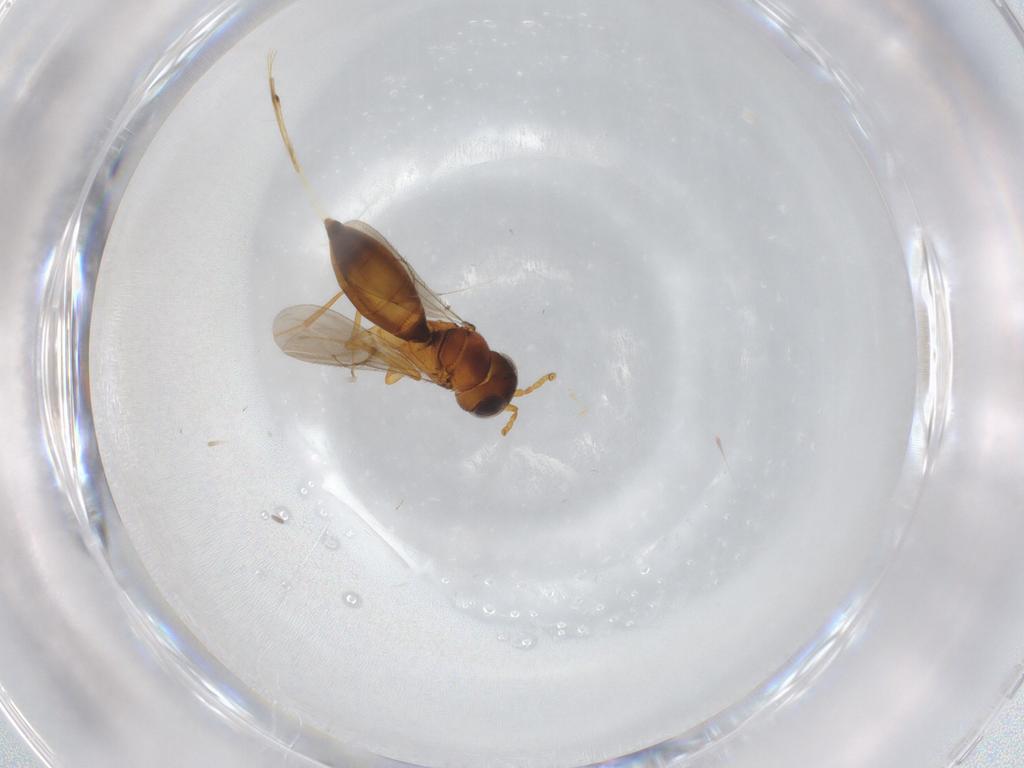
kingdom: Animalia
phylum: Arthropoda
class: Insecta
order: Hymenoptera
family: Scelionidae
